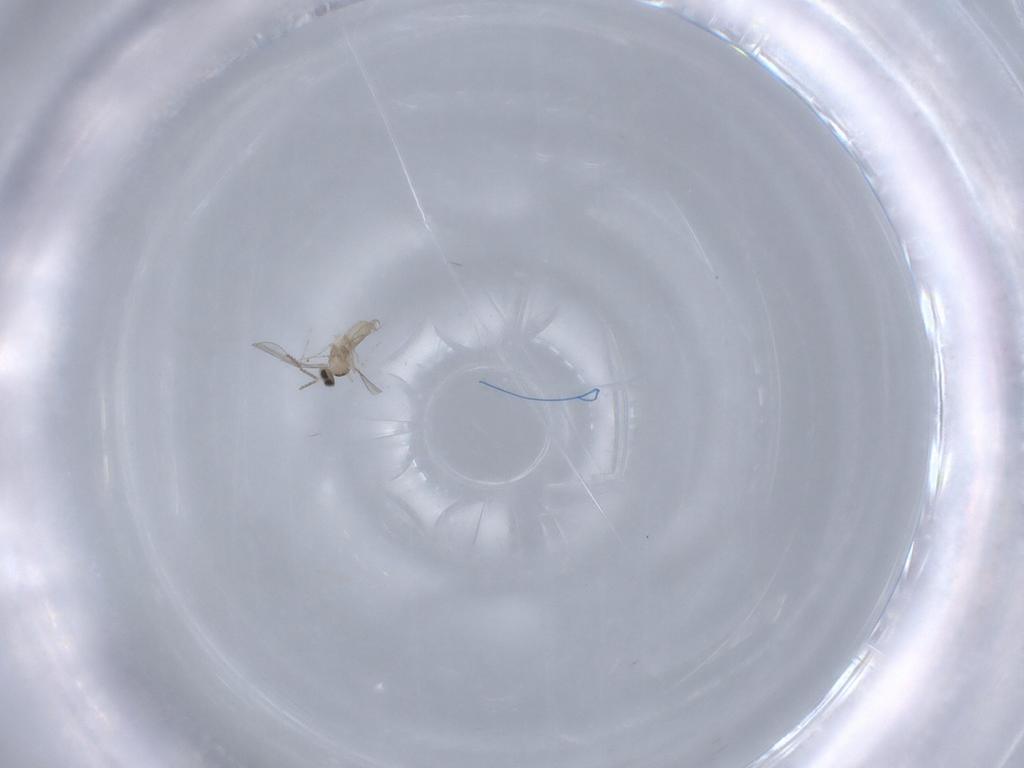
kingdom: Animalia
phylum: Arthropoda
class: Insecta
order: Diptera
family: Cecidomyiidae
